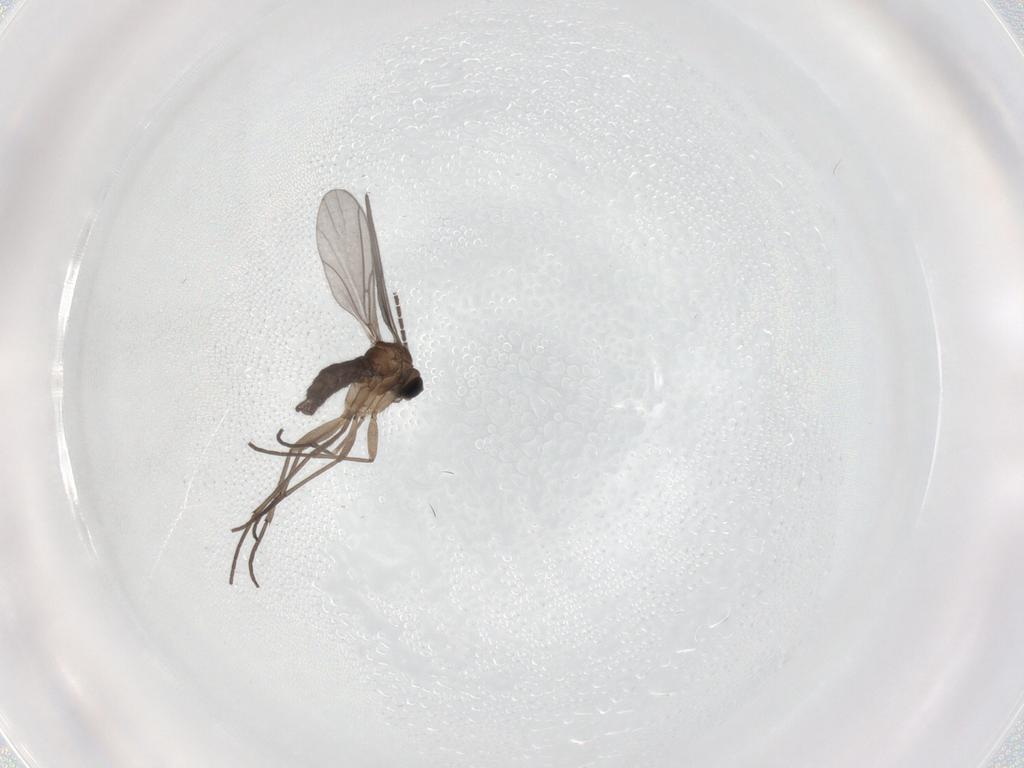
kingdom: Animalia
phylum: Arthropoda
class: Insecta
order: Diptera
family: Sciaridae
